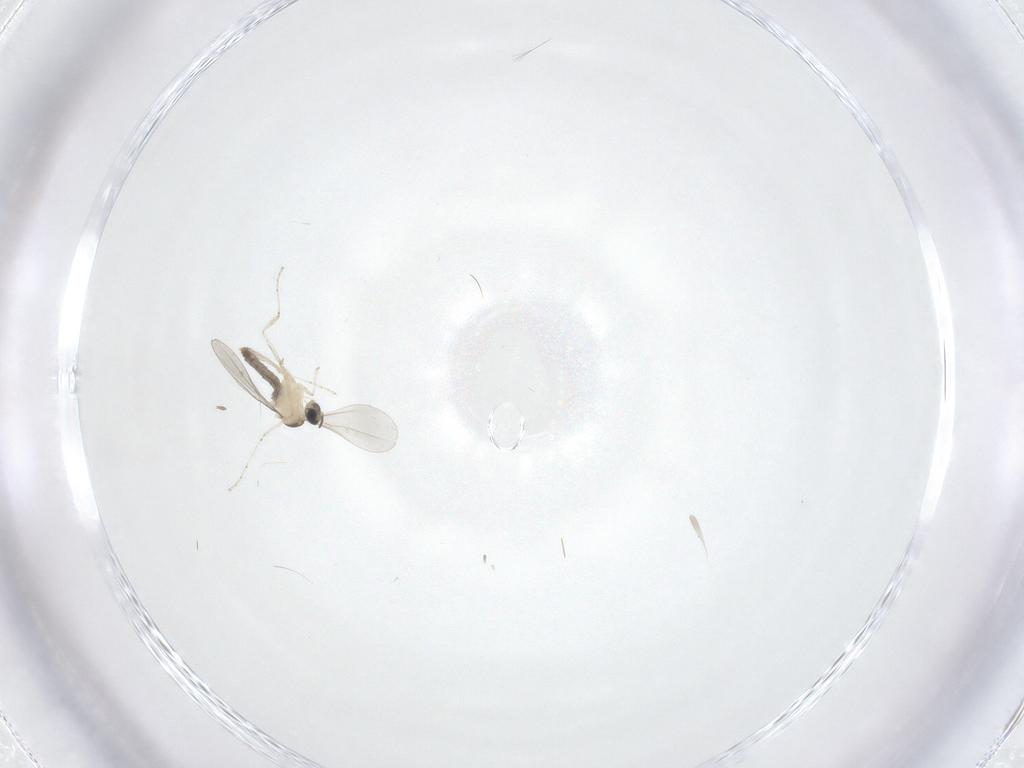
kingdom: Animalia
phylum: Arthropoda
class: Insecta
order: Diptera
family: Cecidomyiidae
